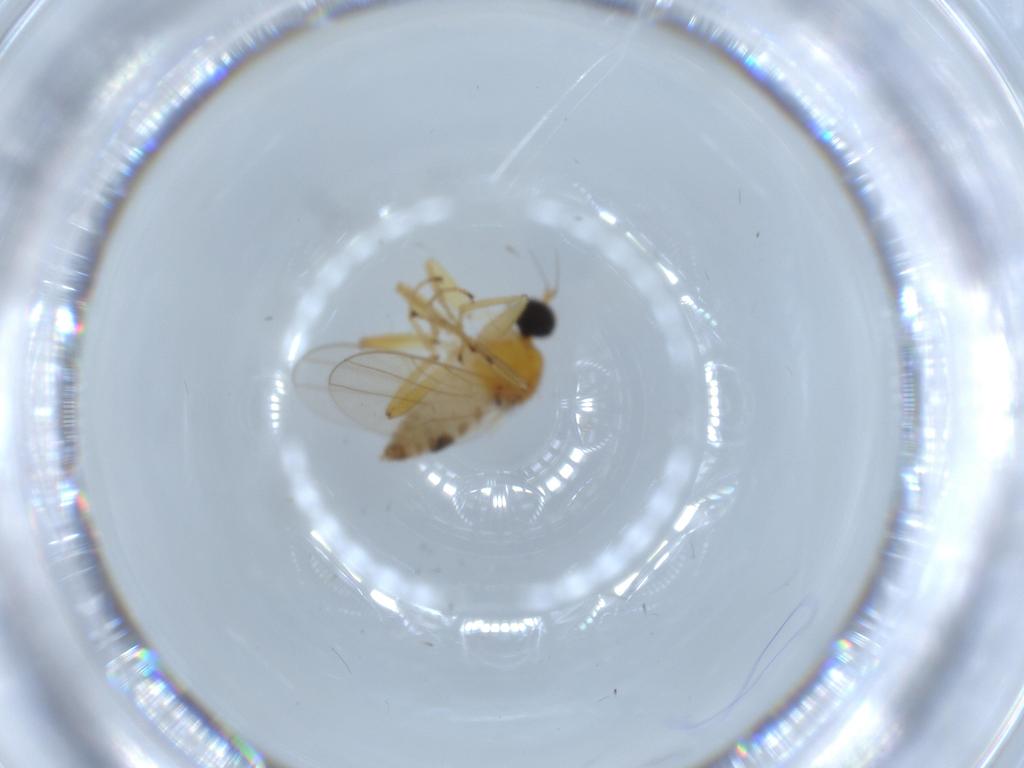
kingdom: Animalia
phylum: Arthropoda
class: Insecta
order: Diptera
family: Hybotidae
